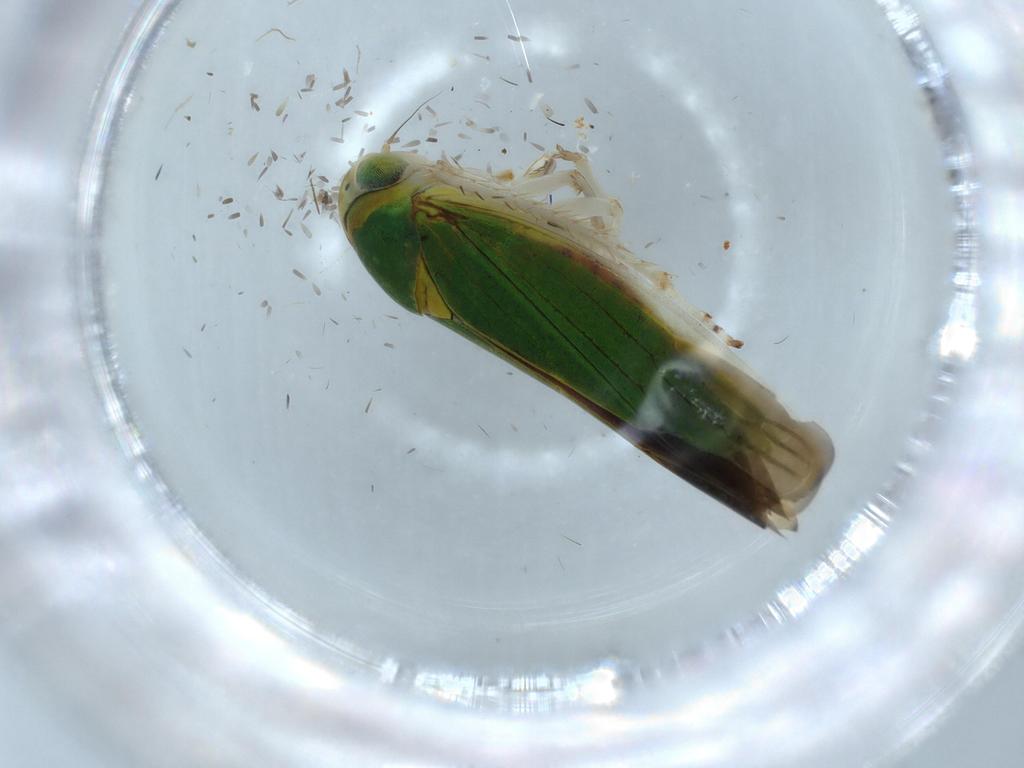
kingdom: Animalia
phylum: Arthropoda
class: Insecta
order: Hemiptera
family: Cicadellidae
